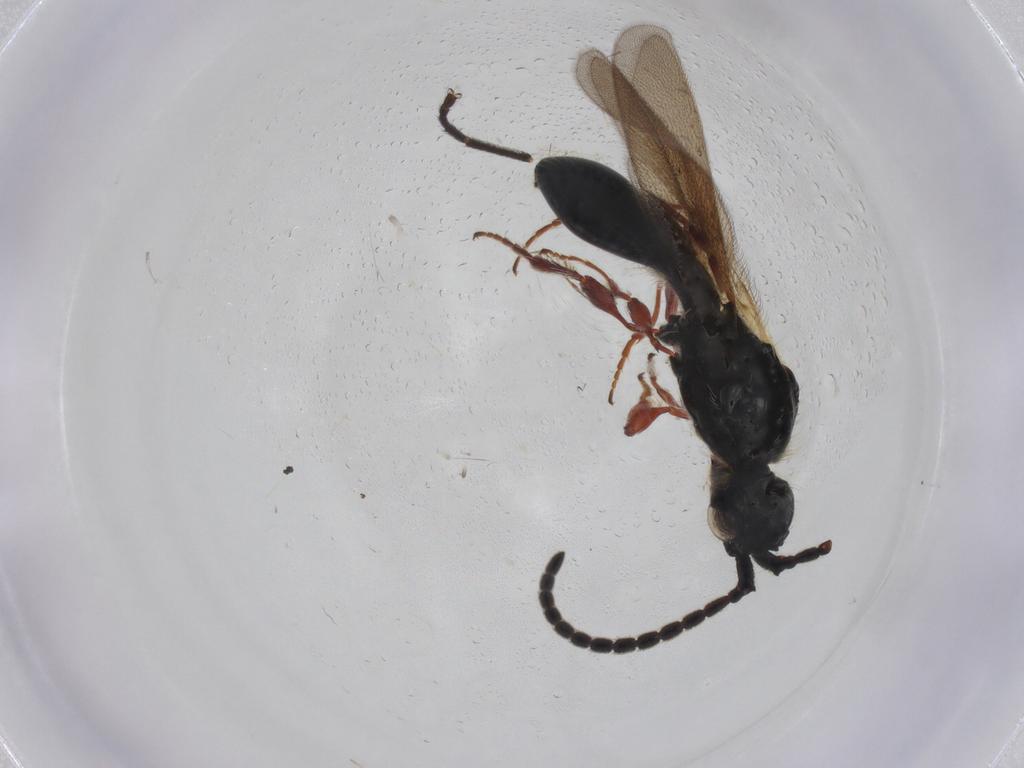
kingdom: Animalia
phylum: Arthropoda
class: Insecta
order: Hymenoptera
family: Diapriidae
